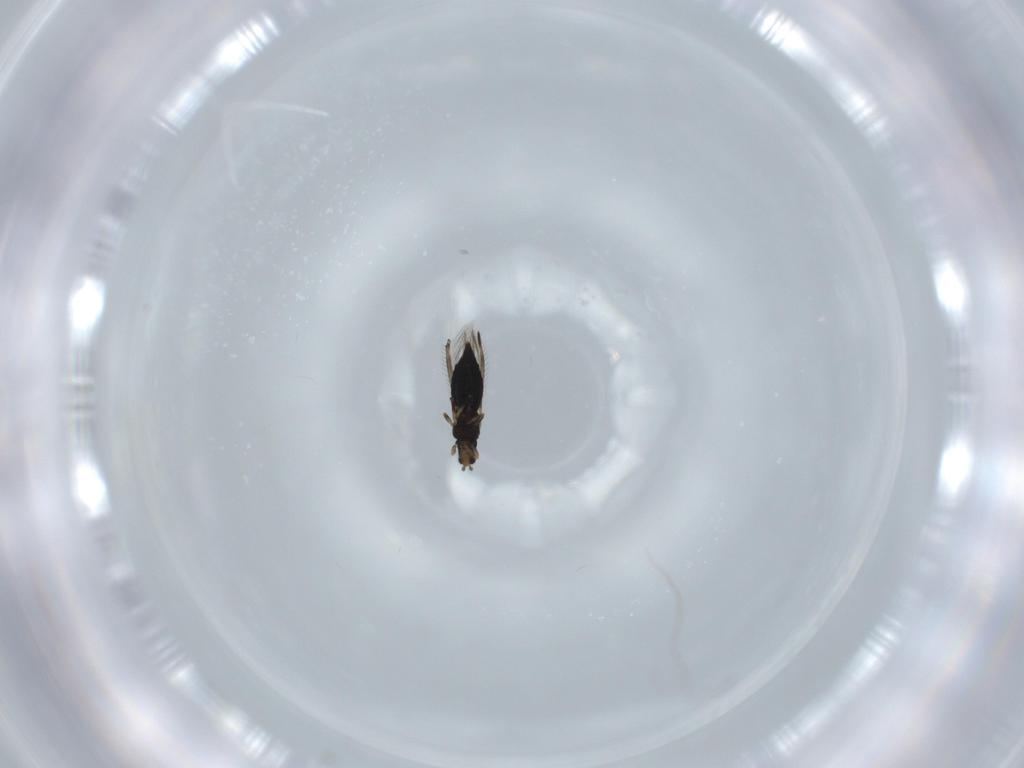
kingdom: Animalia
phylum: Arthropoda
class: Insecta
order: Thysanoptera
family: Thripidae
